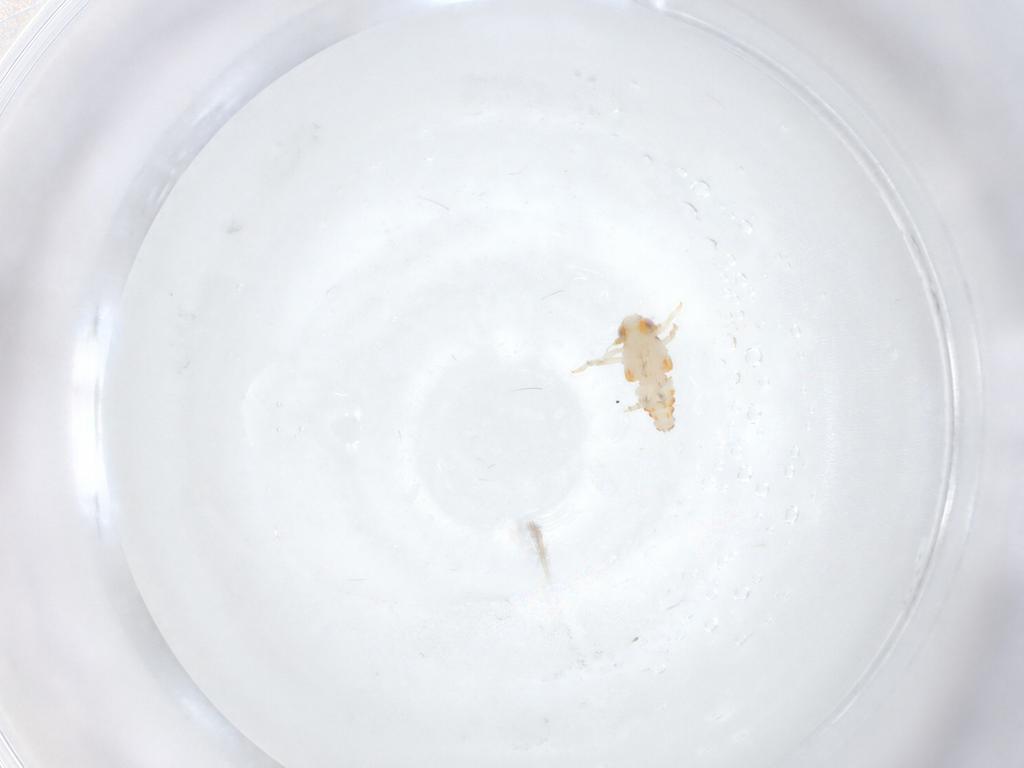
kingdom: Animalia
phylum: Arthropoda
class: Insecta
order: Hemiptera
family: Nogodinidae
